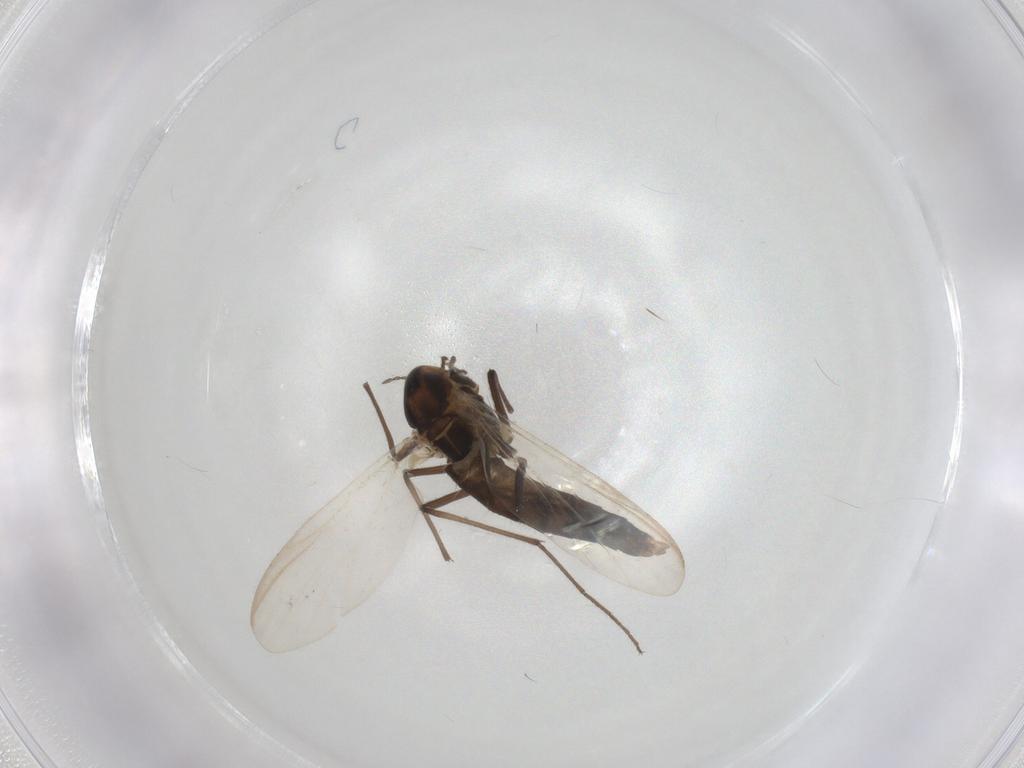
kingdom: Animalia
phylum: Arthropoda
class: Insecta
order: Diptera
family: Chironomidae
